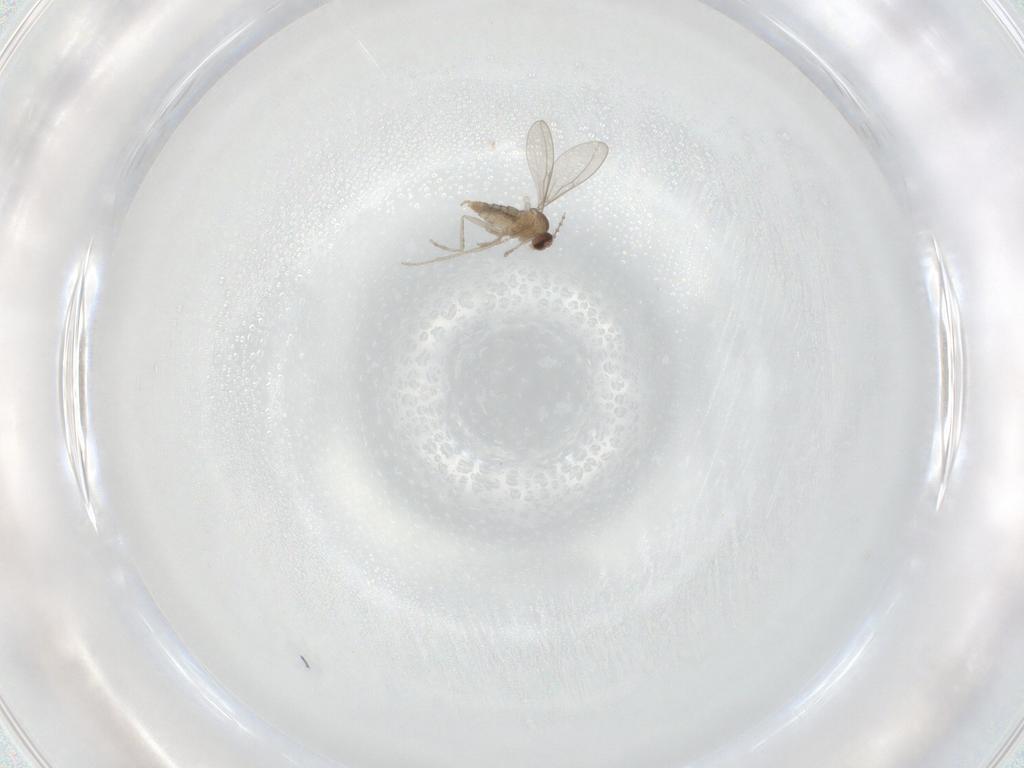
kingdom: Animalia
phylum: Arthropoda
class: Insecta
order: Diptera
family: Cecidomyiidae
